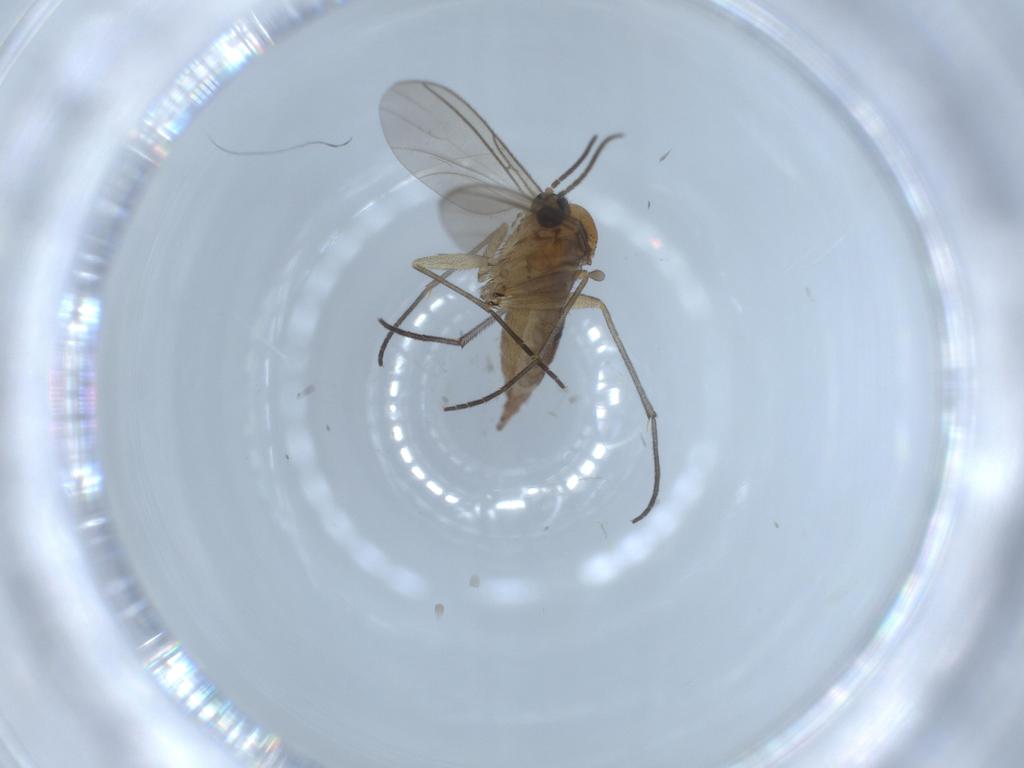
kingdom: Animalia
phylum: Arthropoda
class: Insecta
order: Diptera
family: Sciaridae
